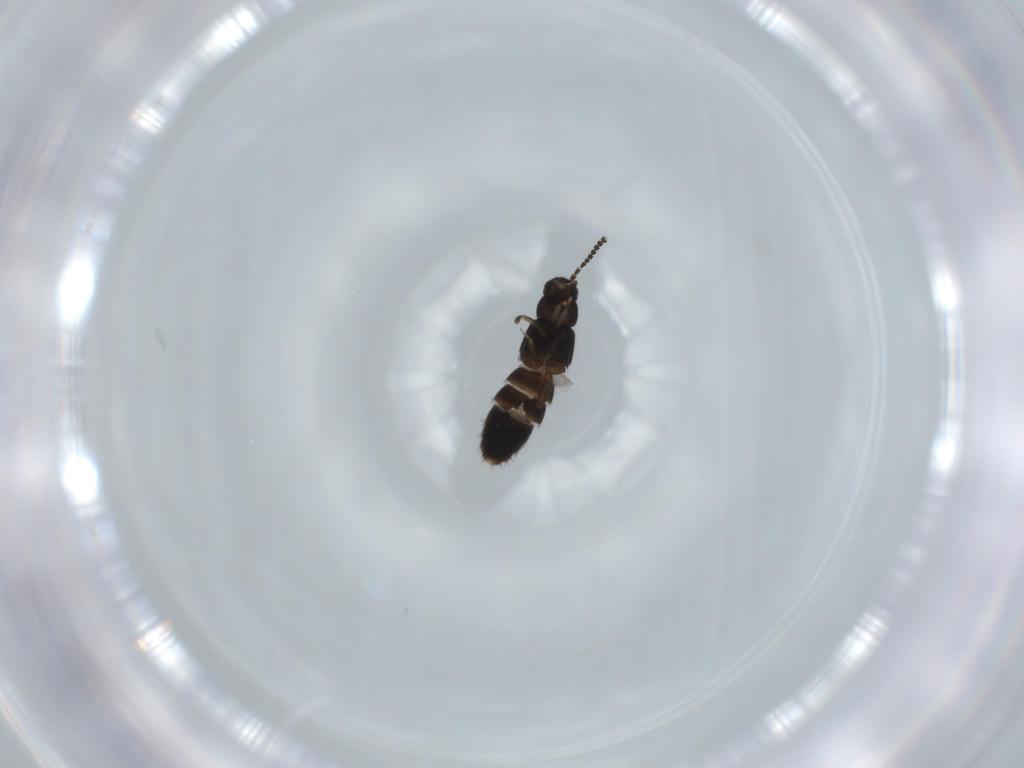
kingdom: Animalia
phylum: Arthropoda
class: Insecta
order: Coleoptera
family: Staphylinidae
